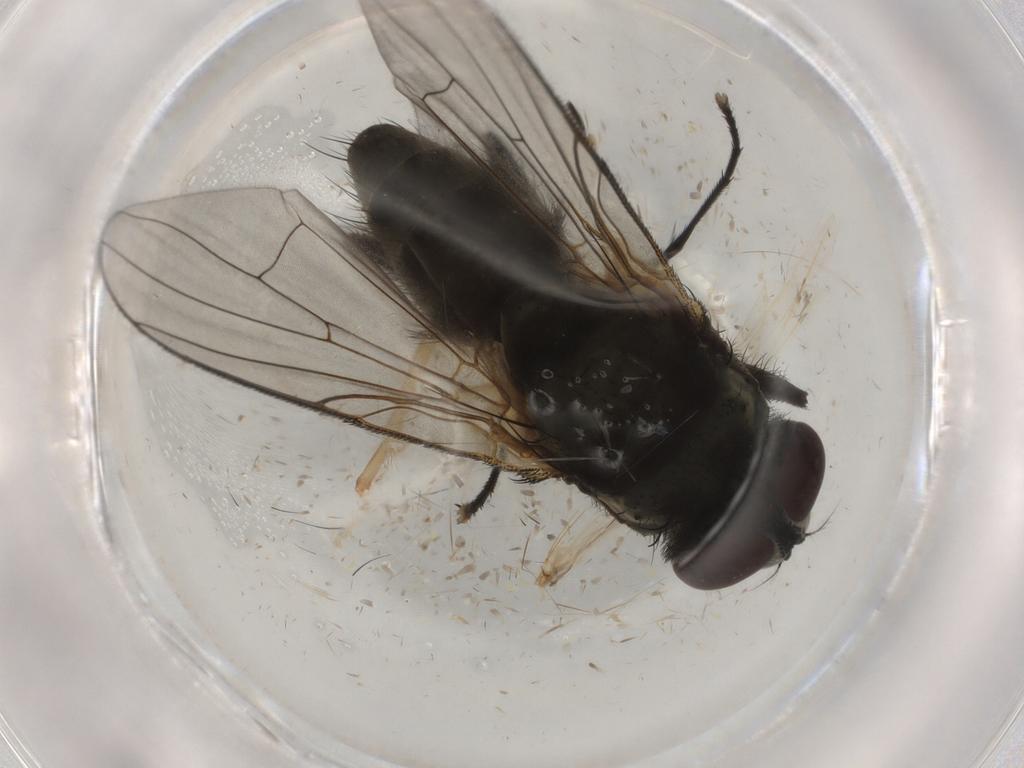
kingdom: Animalia
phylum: Arthropoda
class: Insecta
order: Diptera
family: Muscidae
